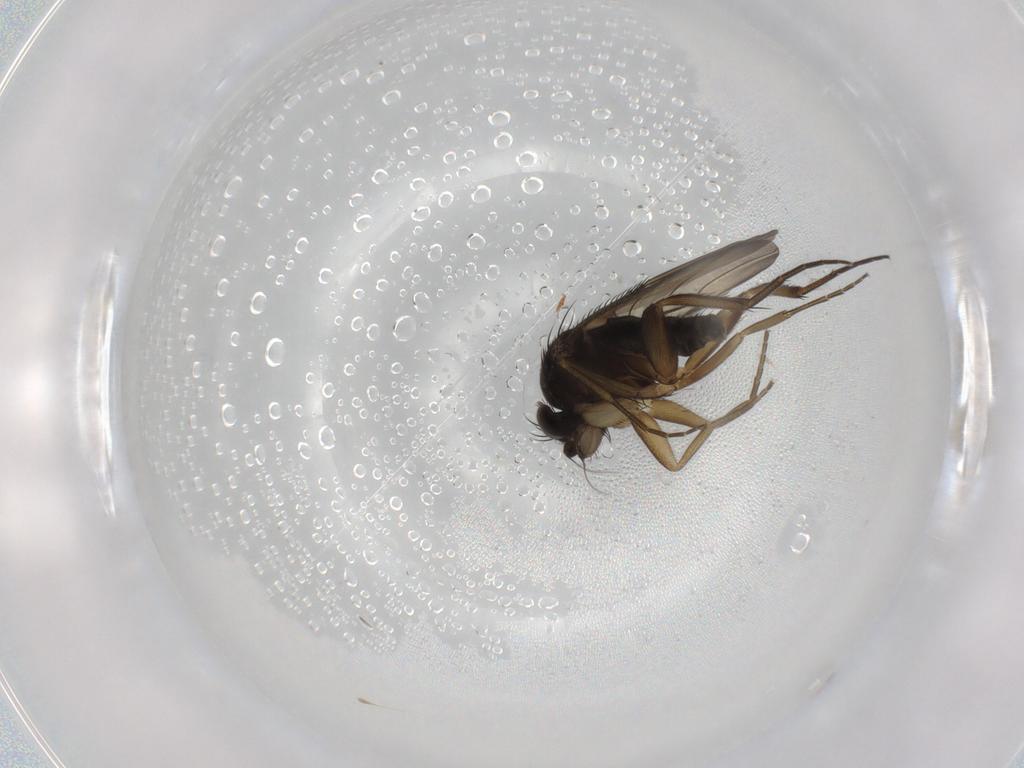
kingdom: Animalia
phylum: Arthropoda
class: Insecta
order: Diptera
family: Phoridae
